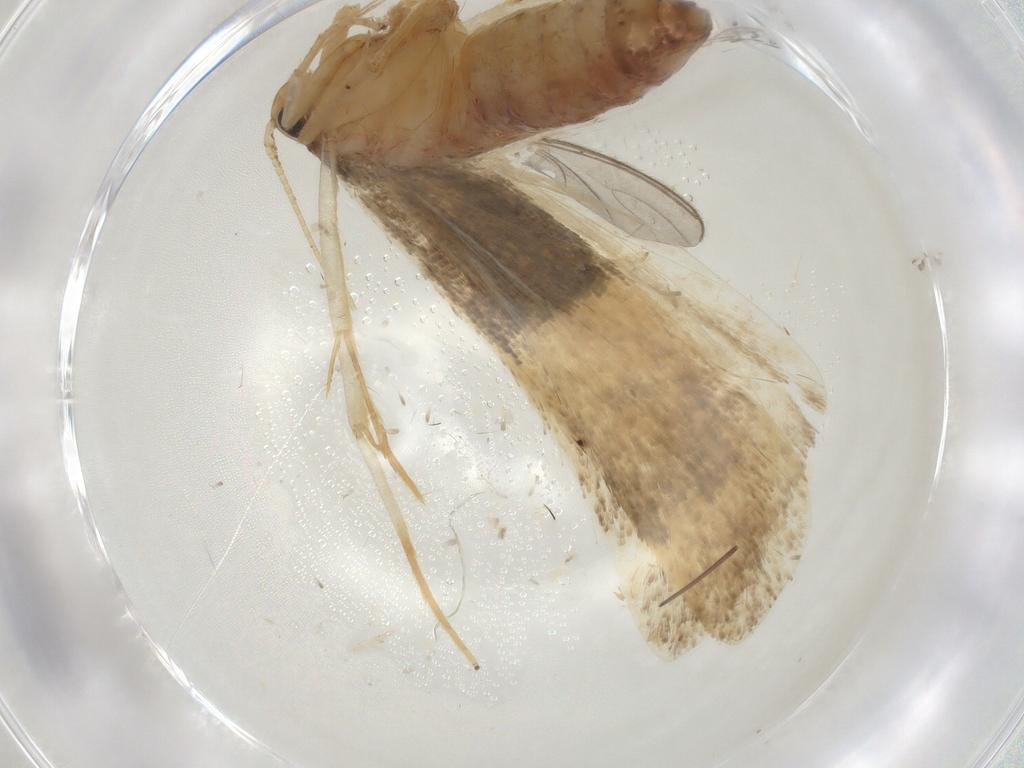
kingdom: Animalia
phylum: Arthropoda
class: Insecta
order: Lepidoptera
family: Lecithoceridae
